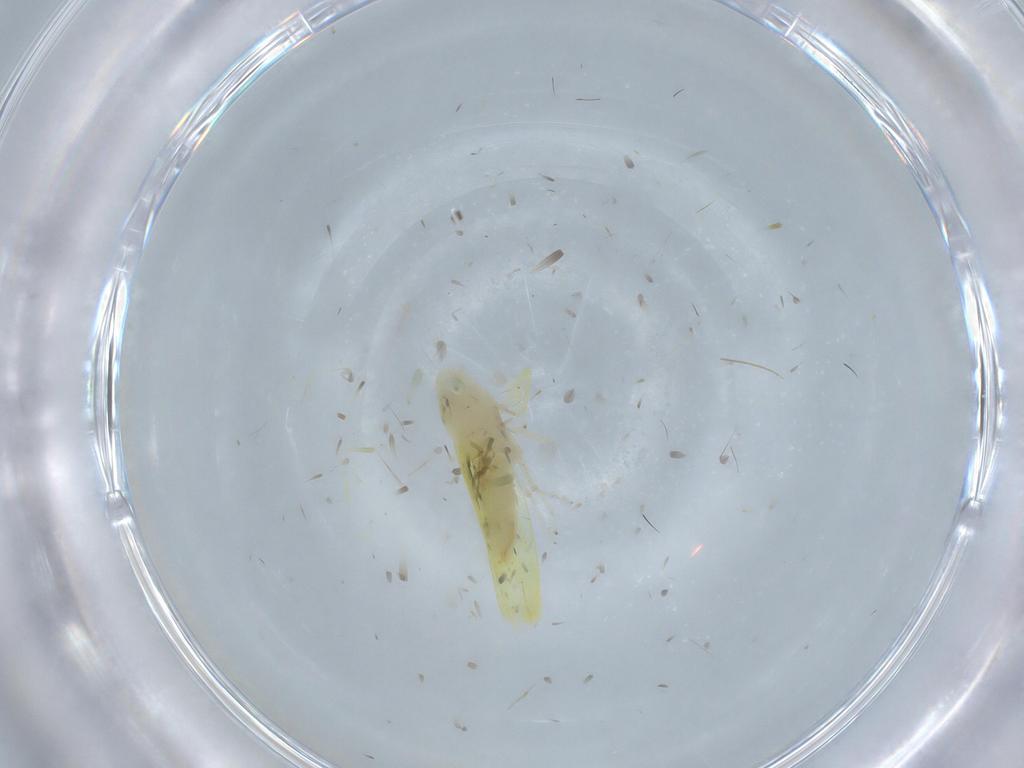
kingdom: Animalia
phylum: Arthropoda
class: Insecta
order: Hemiptera
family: Cicadellidae
